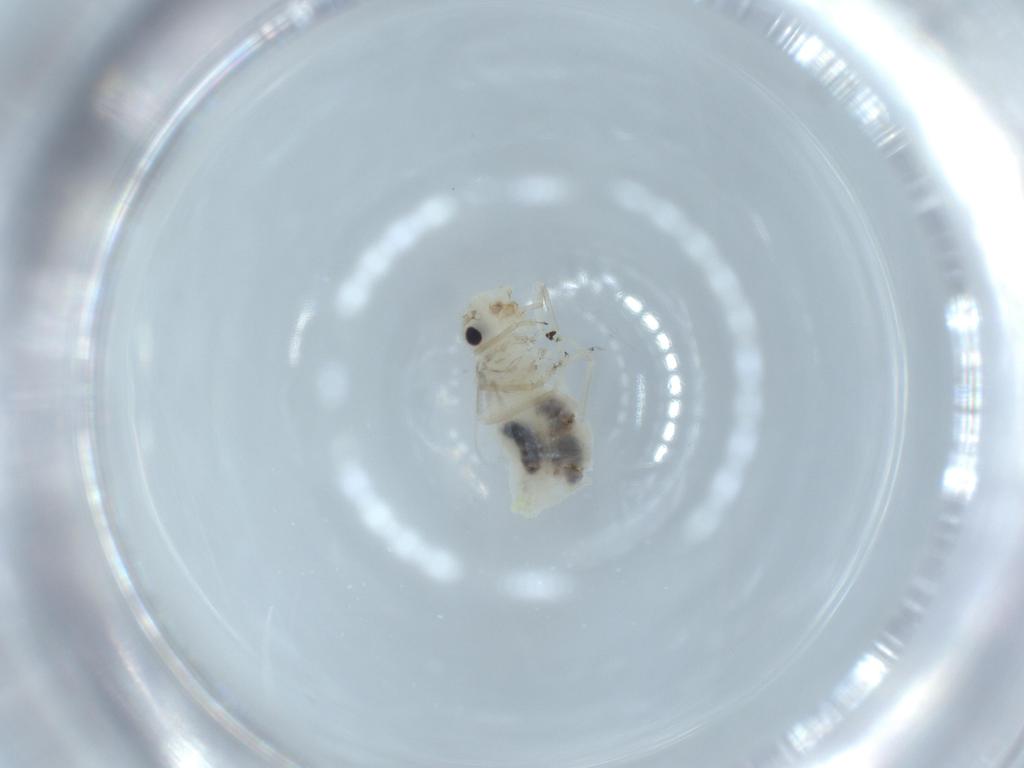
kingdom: Animalia
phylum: Arthropoda
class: Insecta
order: Psocodea
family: Caeciliusidae
